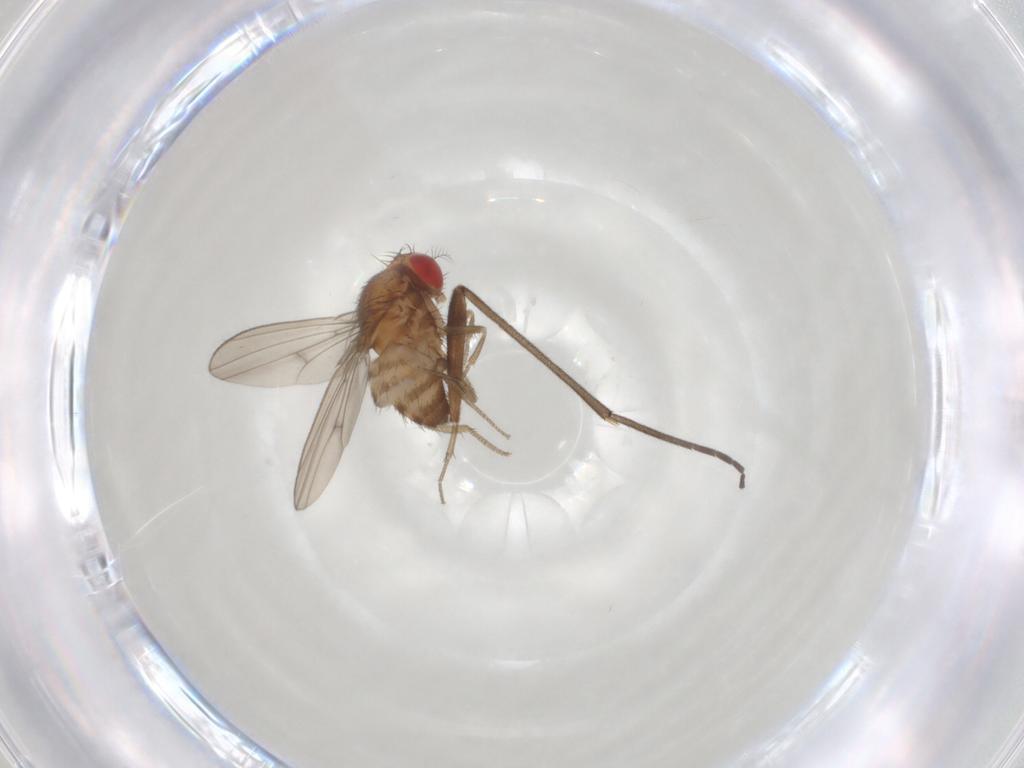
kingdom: Animalia
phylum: Arthropoda
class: Insecta
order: Diptera
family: Drosophilidae
